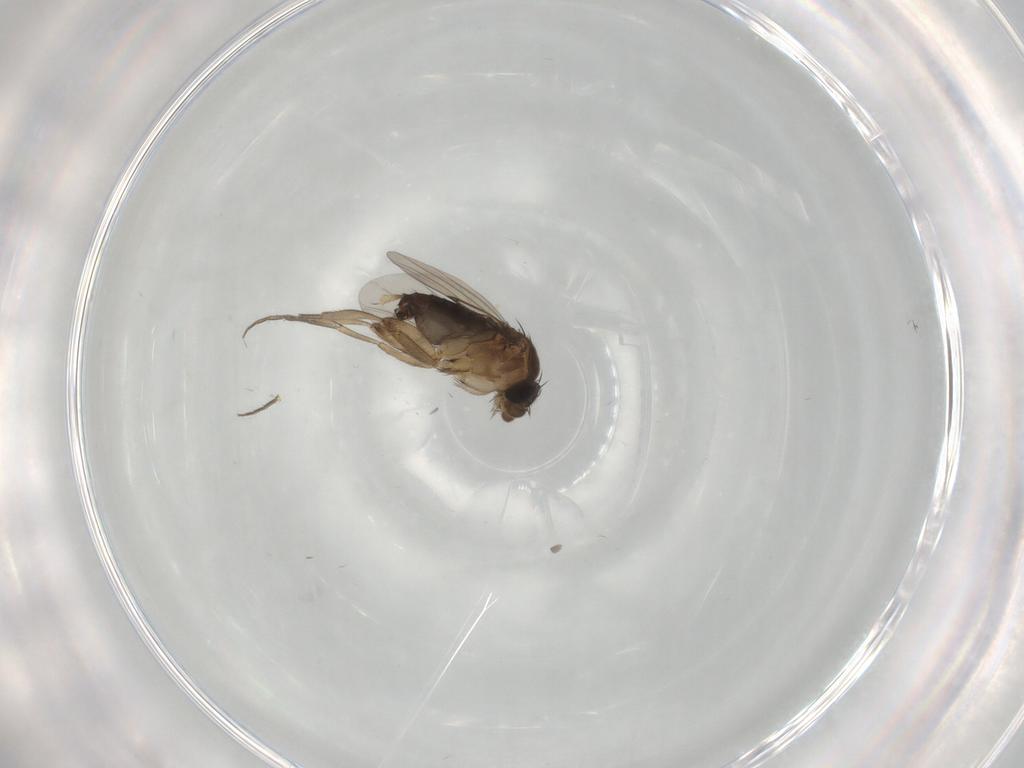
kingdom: Animalia
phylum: Arthropoda
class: Insecta
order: Diptera
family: Phoridae
